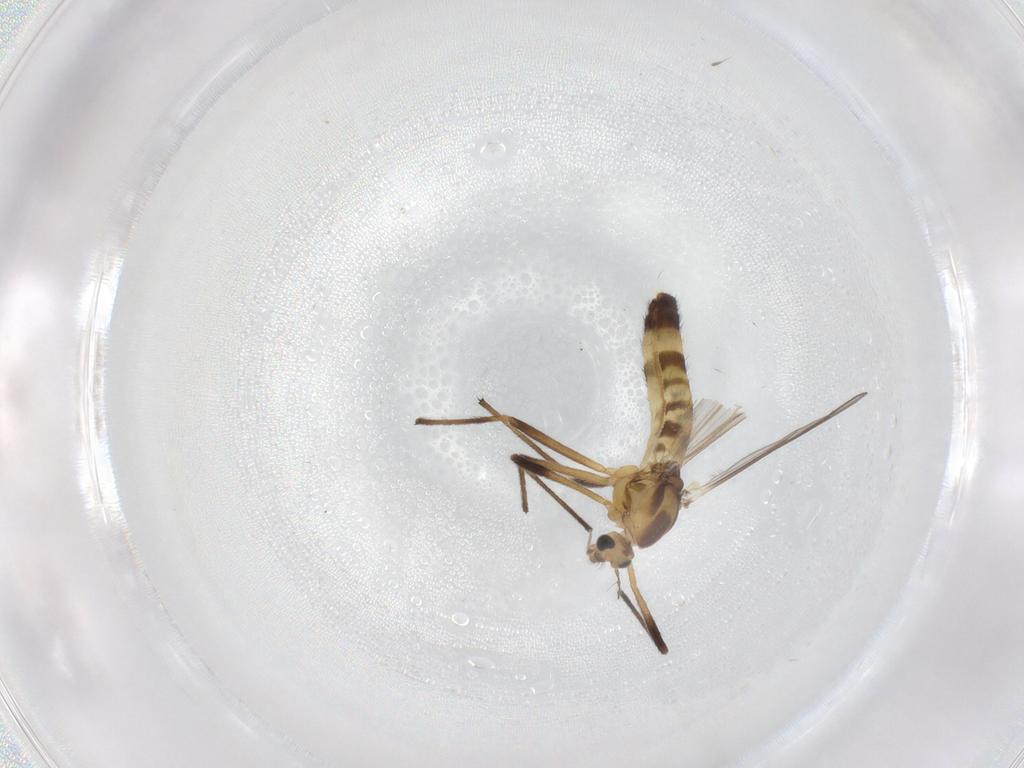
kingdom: Animalia
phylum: Arthropoda
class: Insecta
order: Diptera
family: Chironomidae
